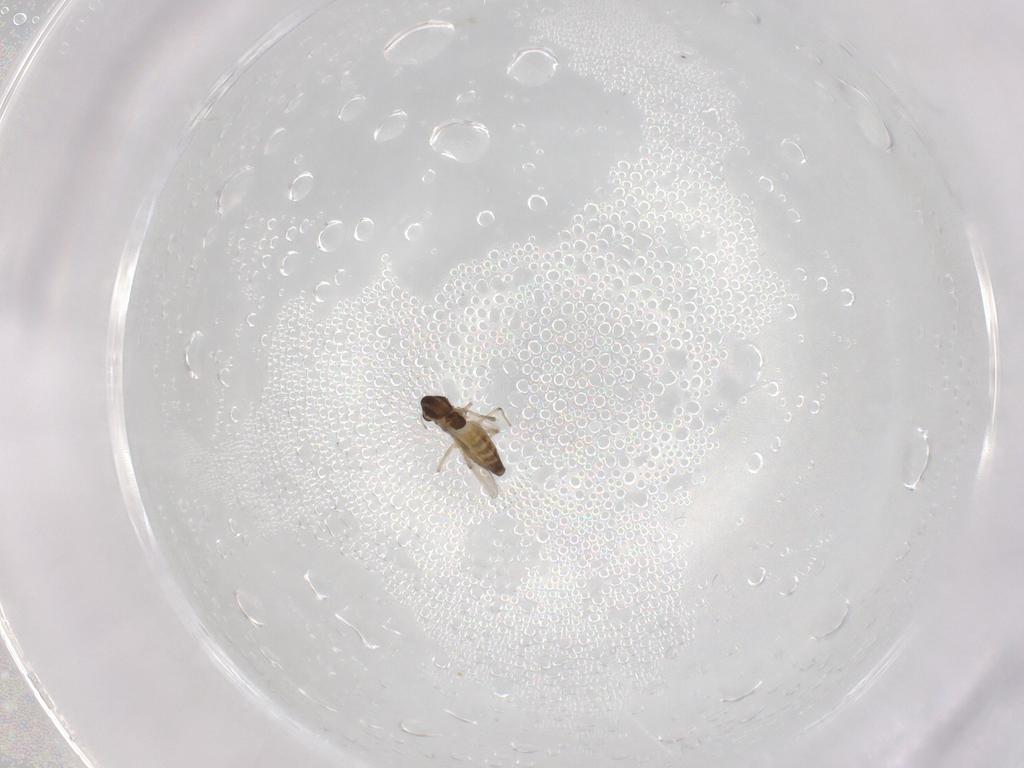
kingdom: Animalia
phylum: Arthropoda
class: Insecta
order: Diptera
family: Chironomidae
